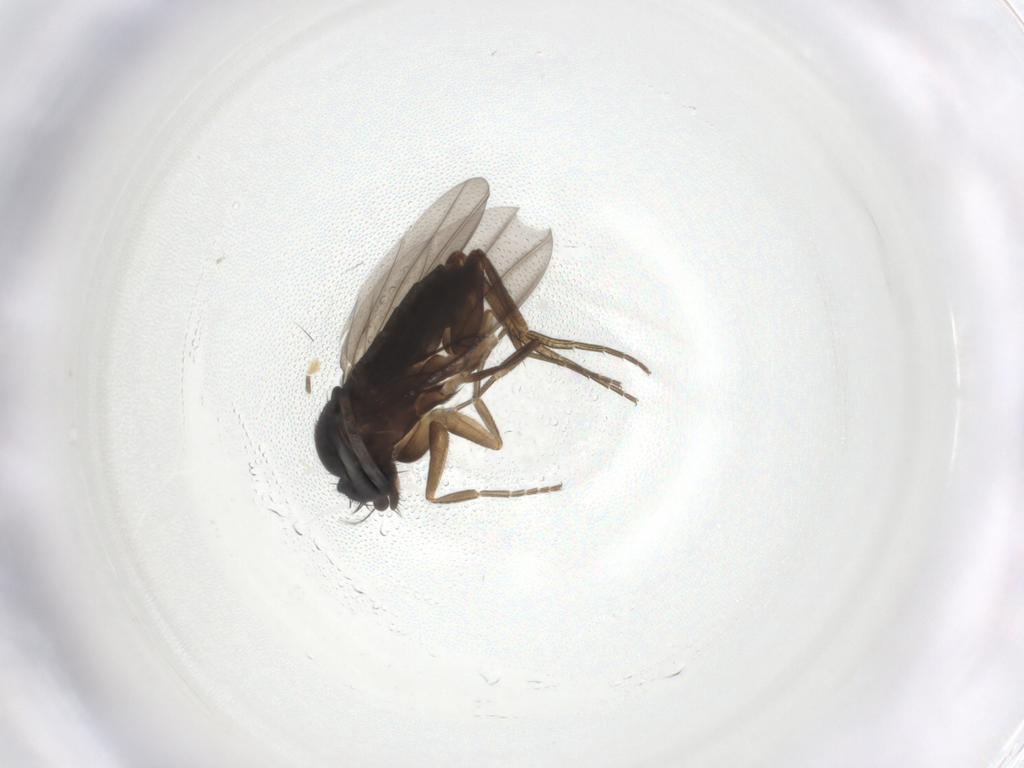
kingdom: Animalia
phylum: Arthropoda
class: Insecta
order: Diptera
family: Phoridae
